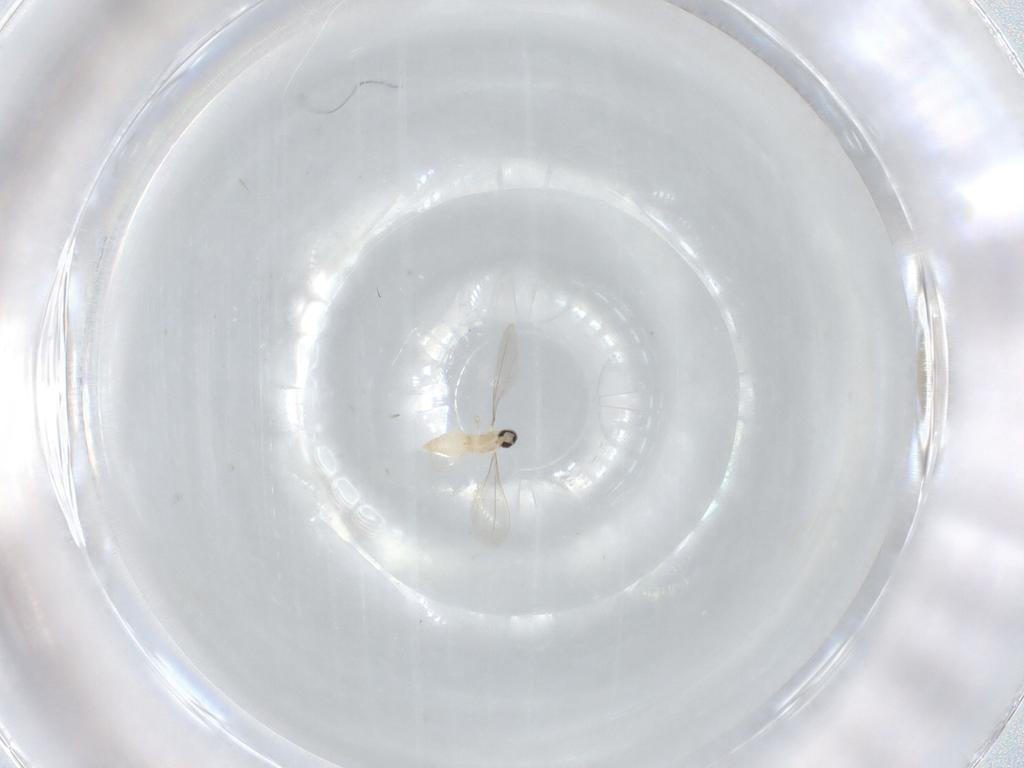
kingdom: Animalia
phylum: Arthropoda
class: Insecta
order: Diptera
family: Cecidomyiidae
